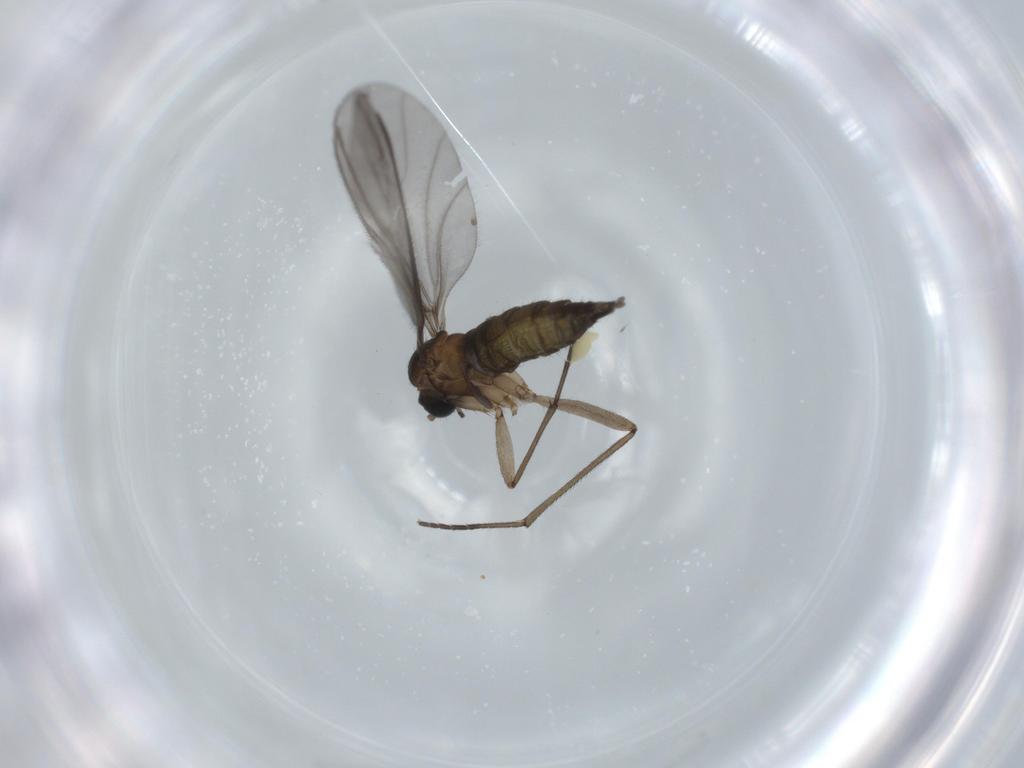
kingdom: Animalia
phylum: Arthropoda
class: Insecta
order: Diptera
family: Sciaridae
